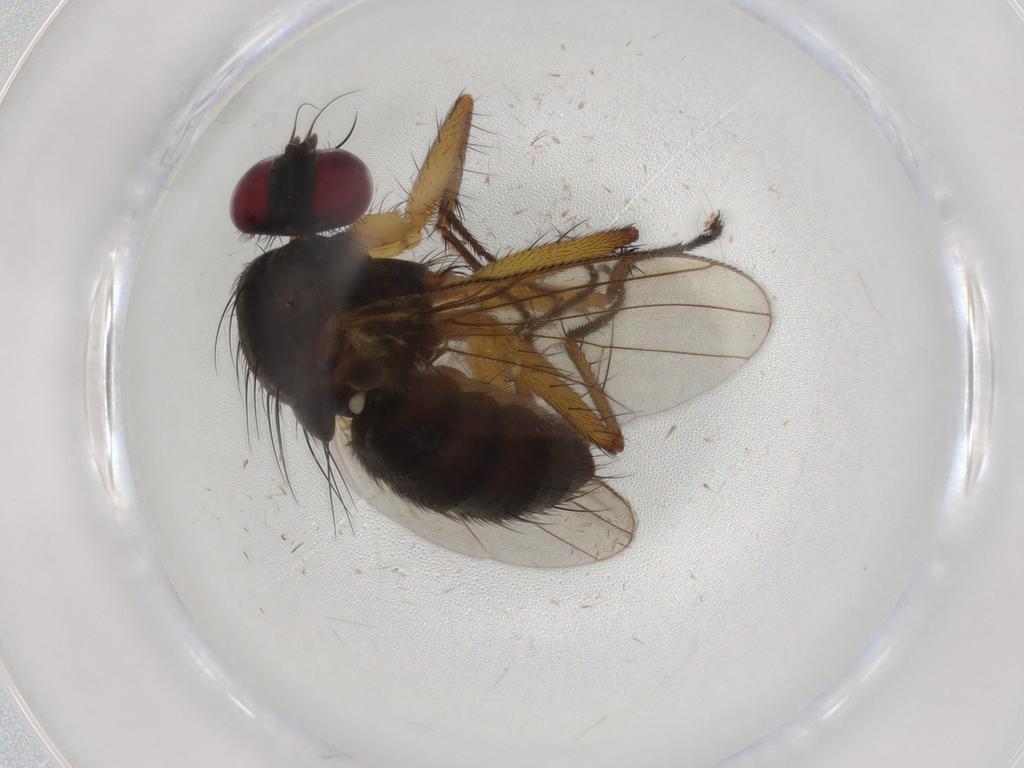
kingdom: Animalia
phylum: Arthropoda
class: Insecta
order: Diptera
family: Muscidae
